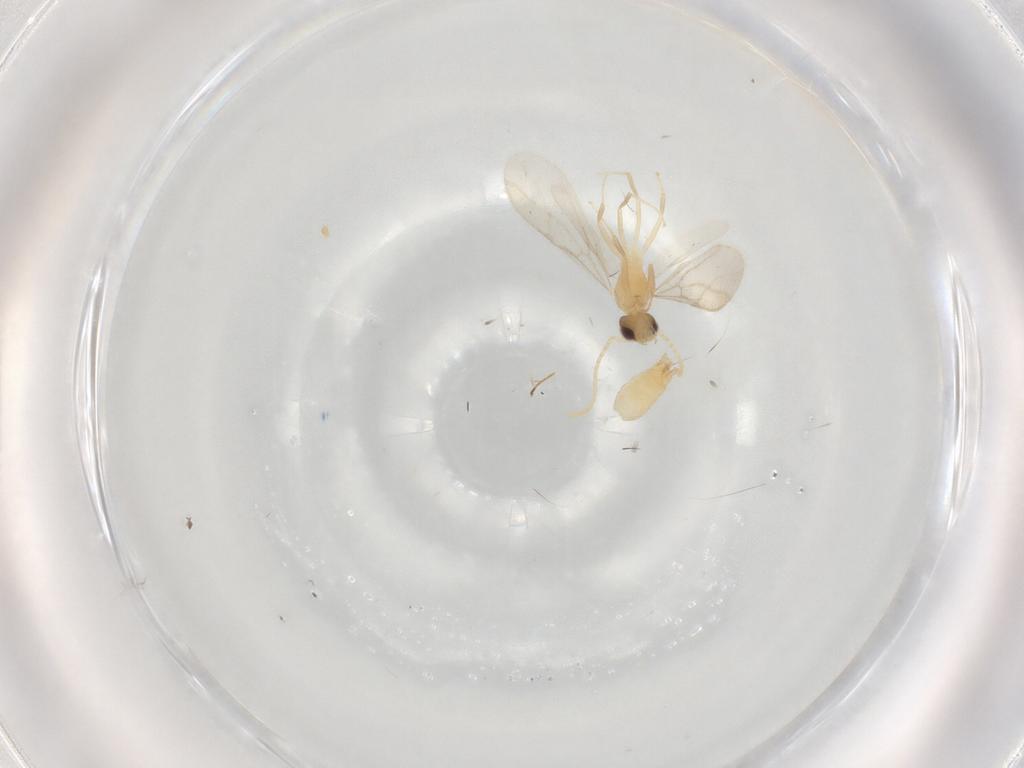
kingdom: Animalia
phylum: Arthropoda
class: Insecta
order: Hymenoptera
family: Formicidae
